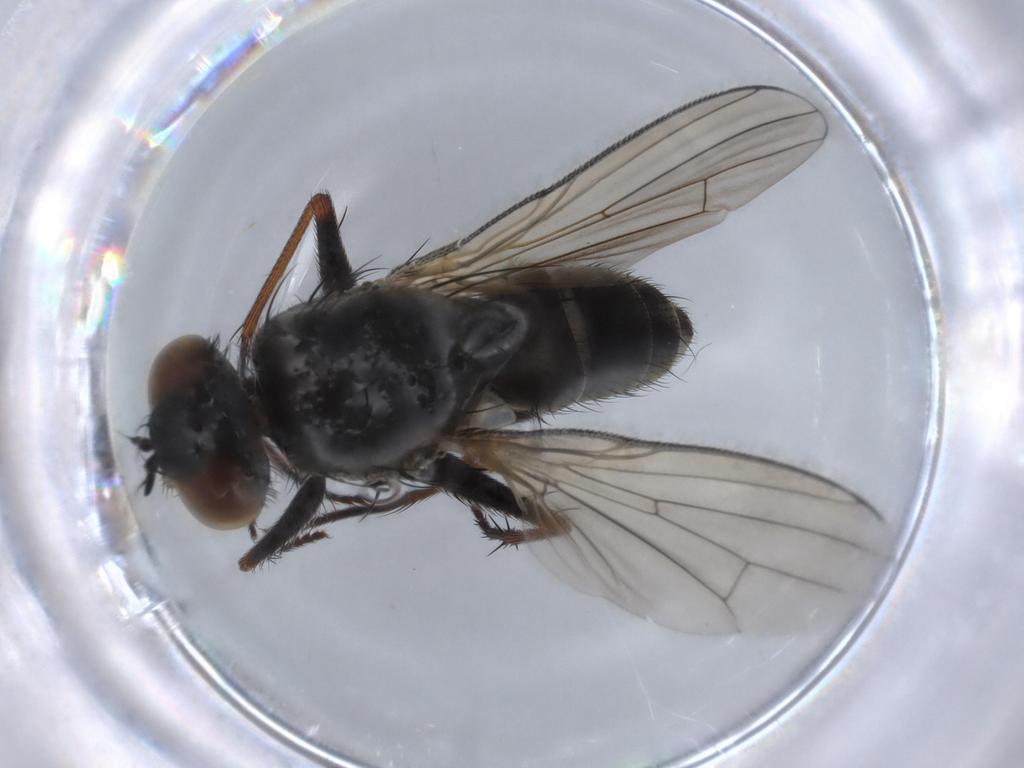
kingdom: Animalia
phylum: Arthropoda
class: Insecta
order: Diptera
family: Muscidae
